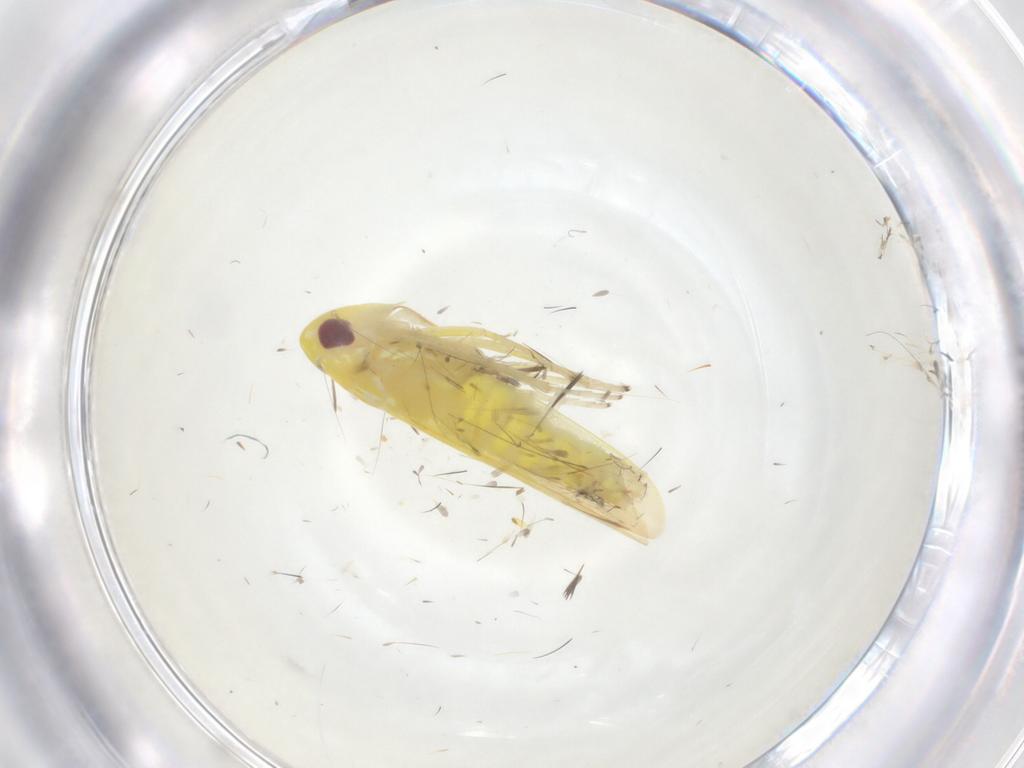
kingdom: Animalia
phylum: Arthropoda
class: Insecta
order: Hemiptera
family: Cicadellidae
